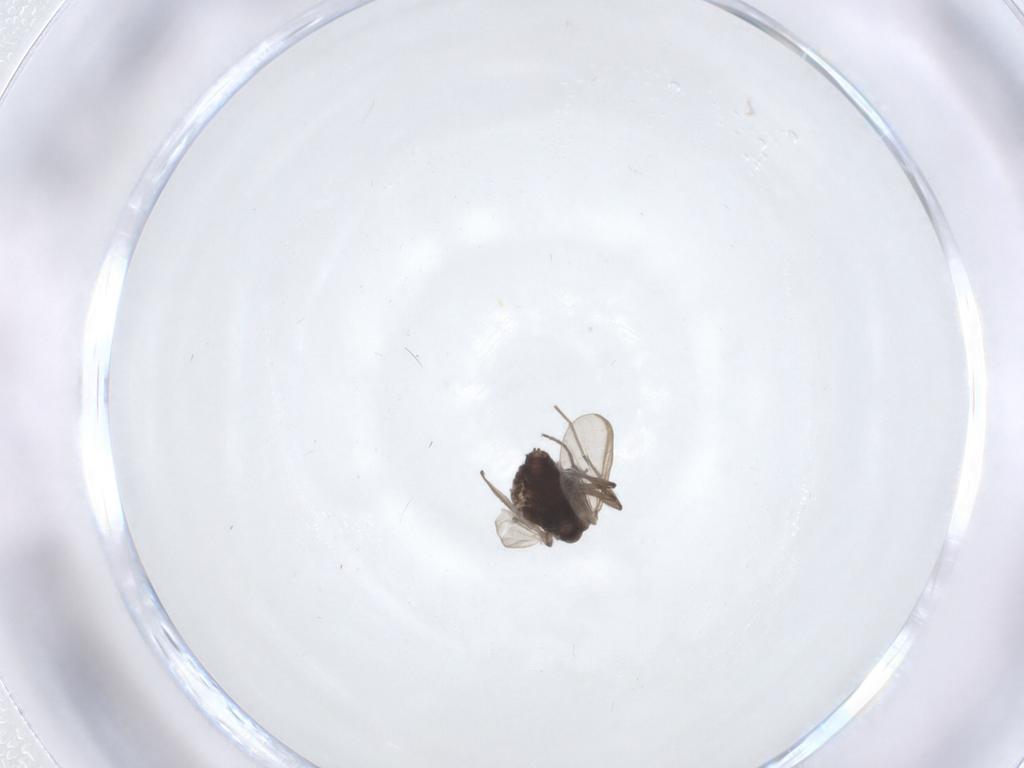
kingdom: Animalia
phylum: Arthropoda
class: Insecta
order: Diptera
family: Chironomidae
